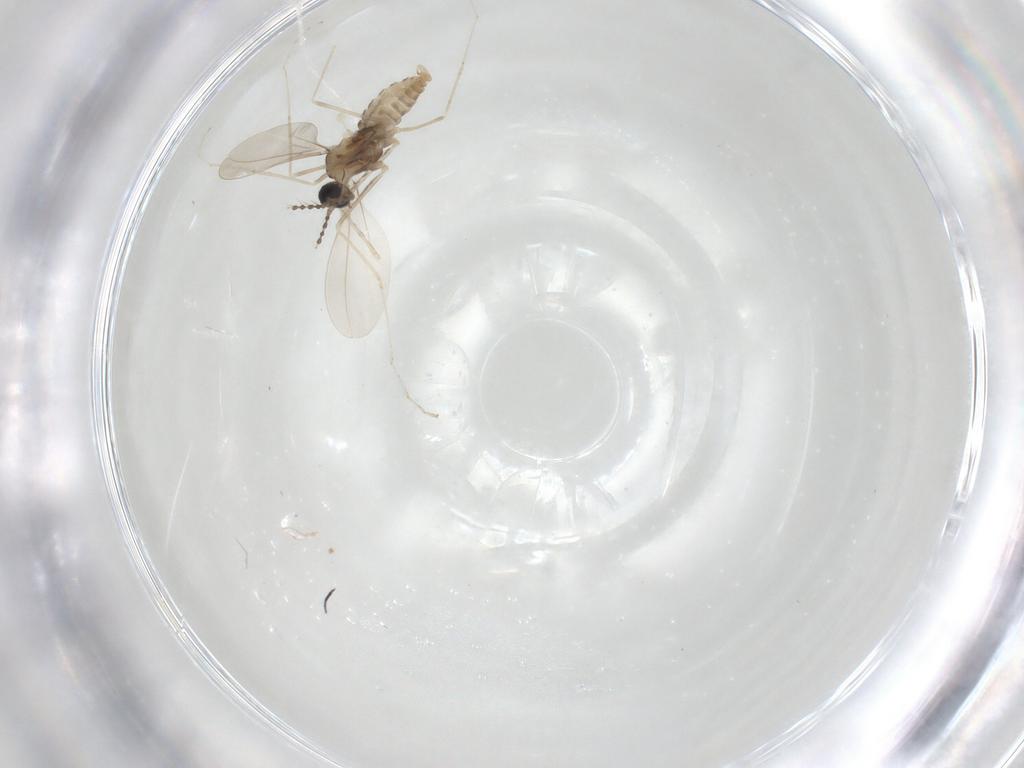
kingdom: Animalia
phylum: Arthropoda
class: Insecta
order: Diptera
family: Cecidomyiidae
